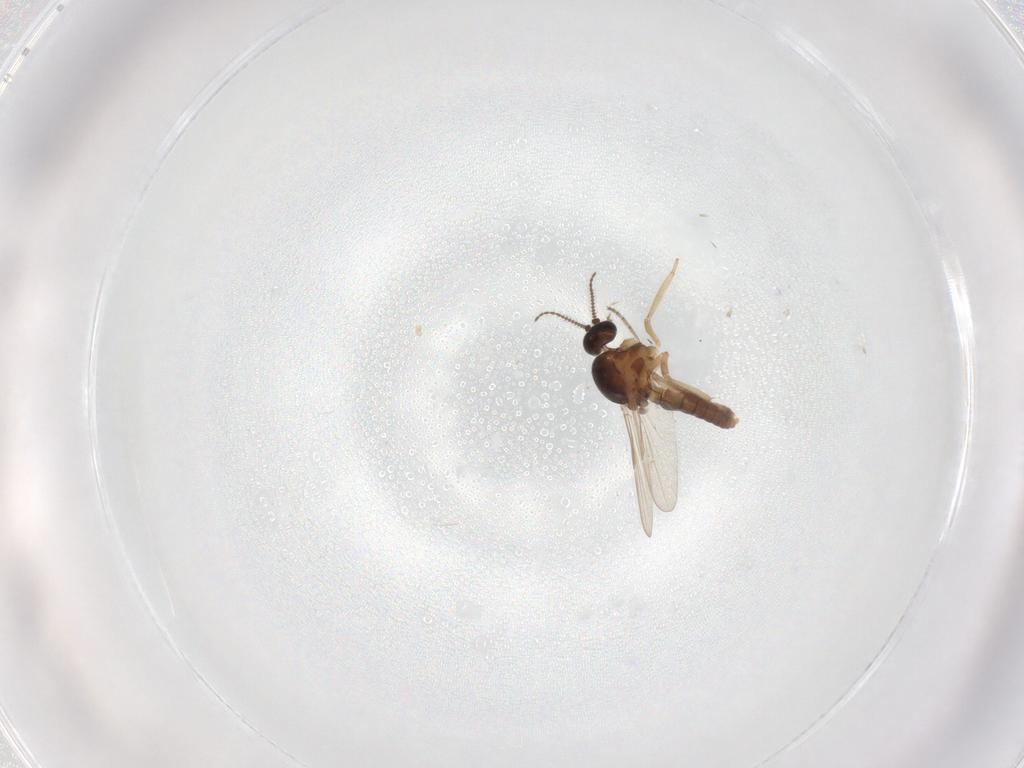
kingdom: Animalia
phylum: Arthropoda
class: Insecta
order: Diptera
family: Ceratopogonidae
